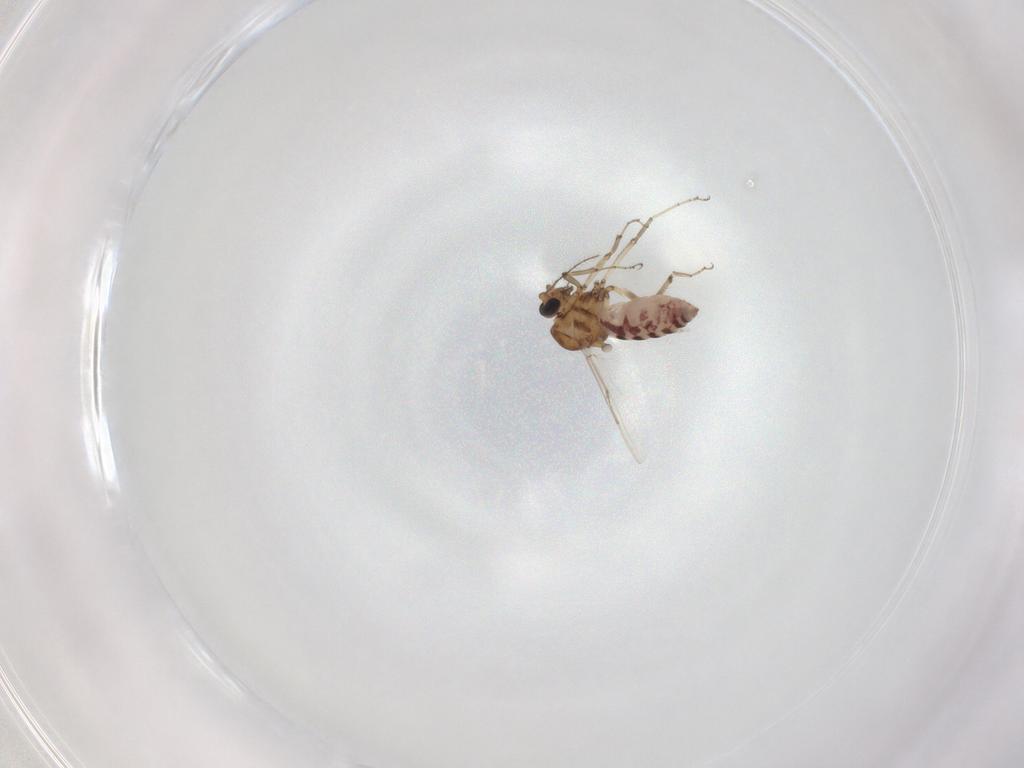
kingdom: Animalia
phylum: Arthropoda
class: Insecta
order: Diptera
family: Ceratopogonidae
